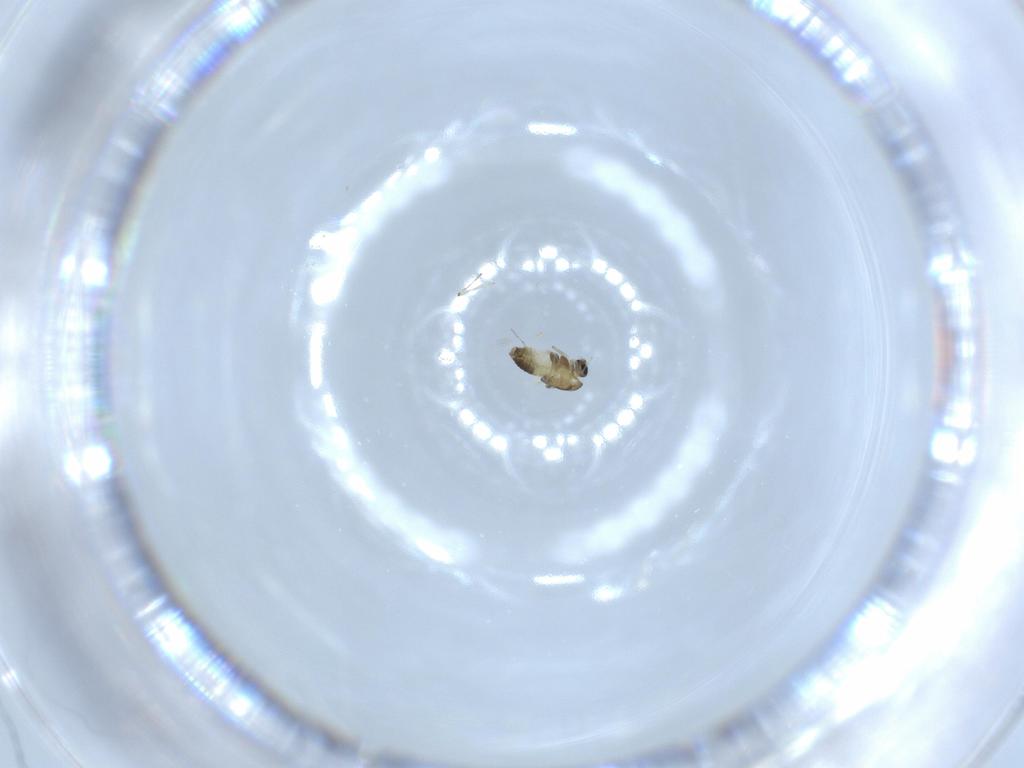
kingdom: Animalia
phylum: Arthropoda
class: Insecta
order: Diptera
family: Chironomidae
